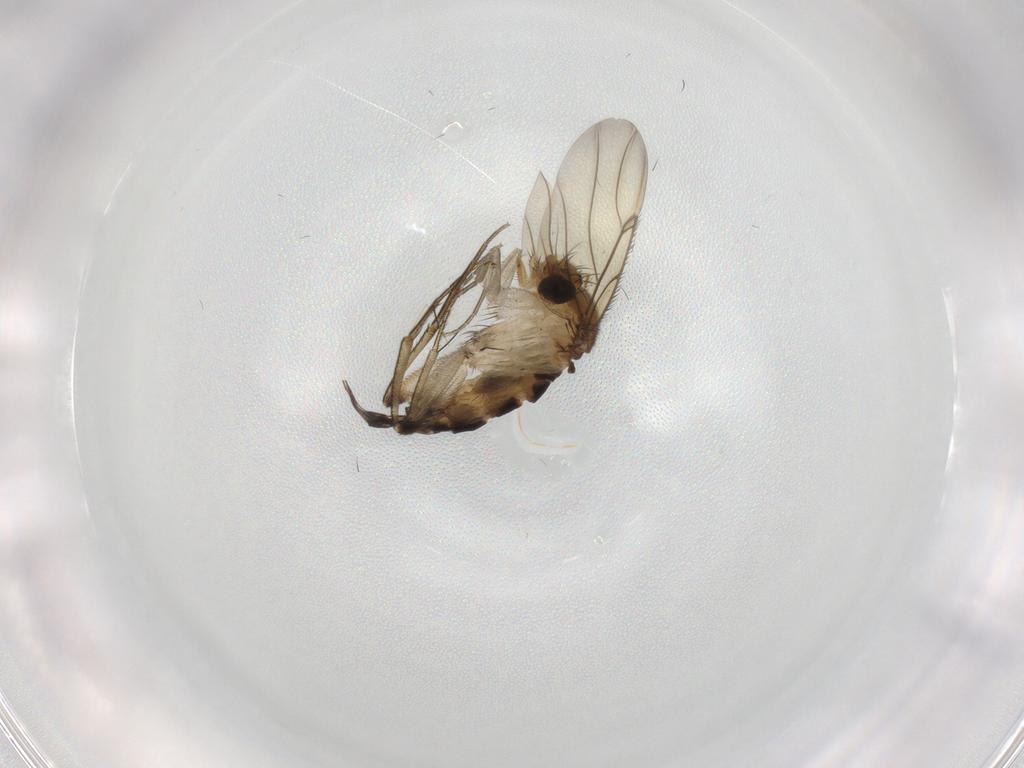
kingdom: Animalia
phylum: Arthropoda
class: Insecta
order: Diptera
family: Phoridae
